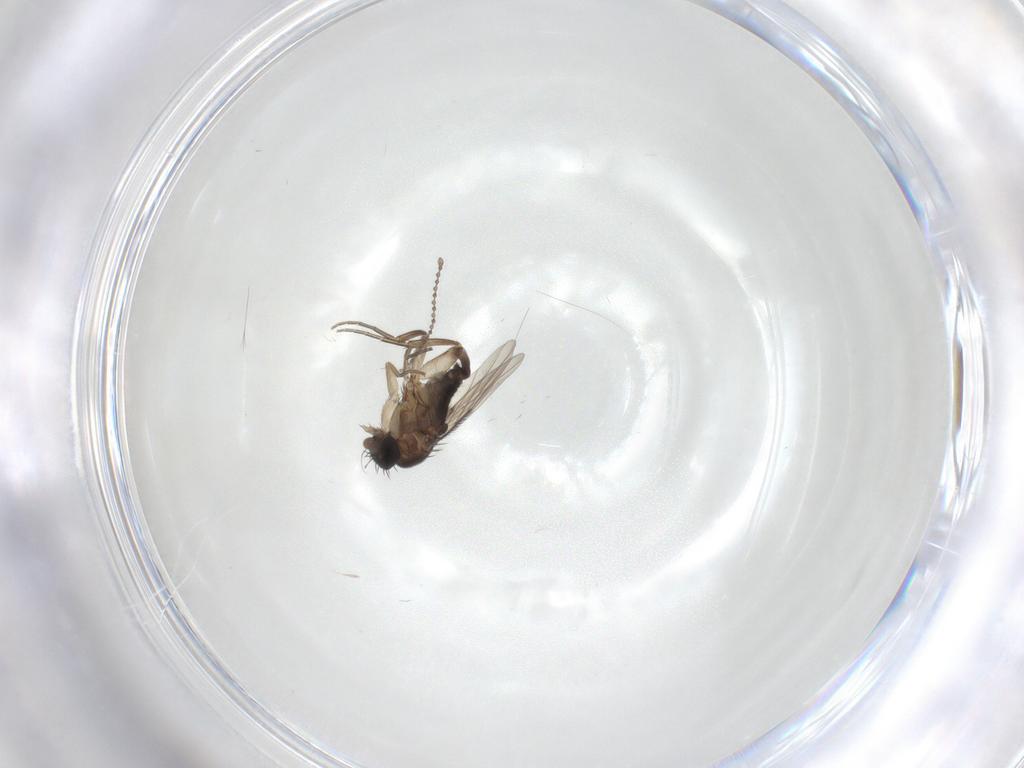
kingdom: Animalia
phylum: Arthropoda
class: Insecta
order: Diptera
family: Phoridae
